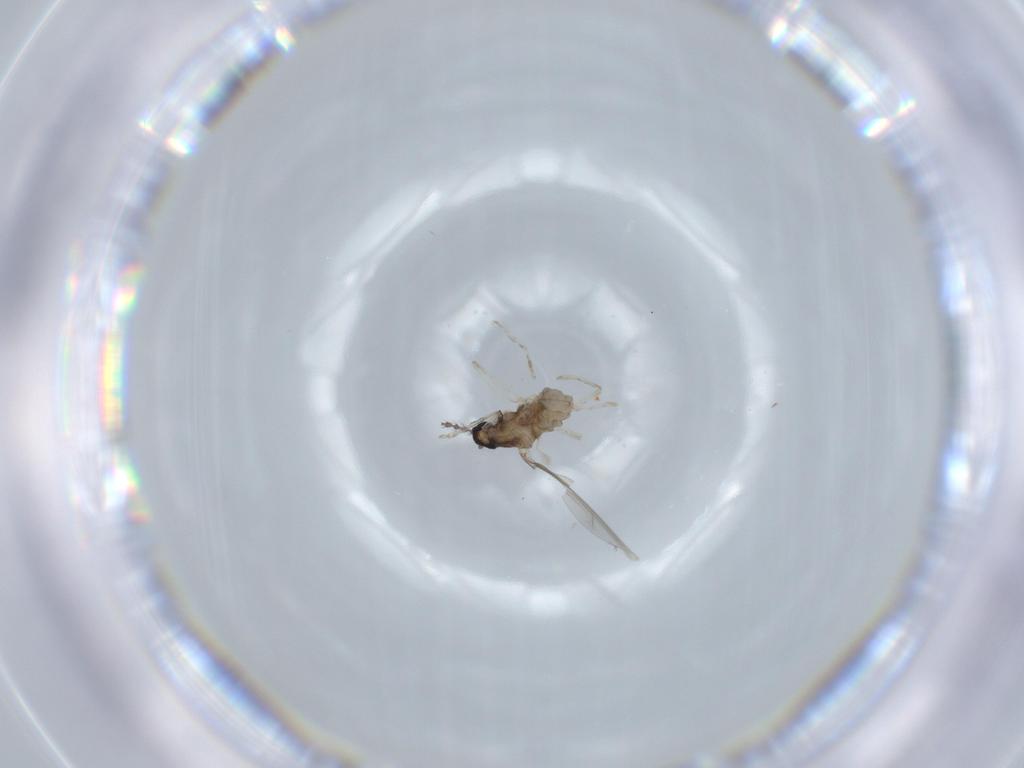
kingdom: Animalia
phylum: Arthropoda
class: Insecta
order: Diptera
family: Cecidomyiidae
